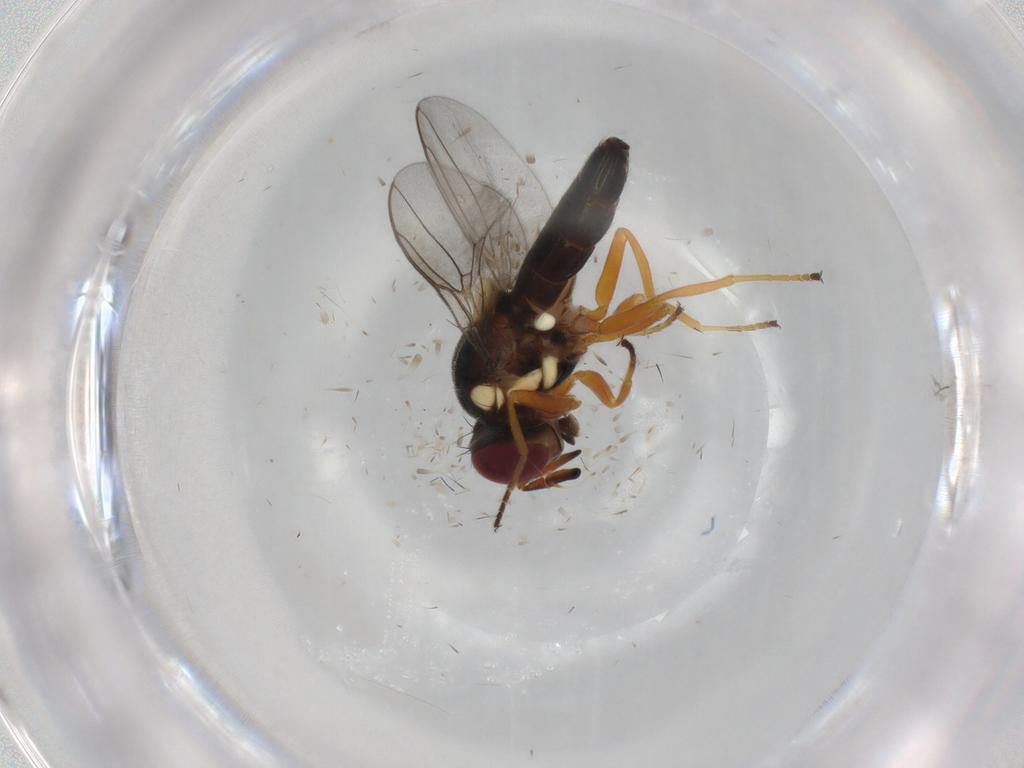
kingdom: Animalia
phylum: Arthropoda
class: Insecta
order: Diptera
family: Chloropidae
